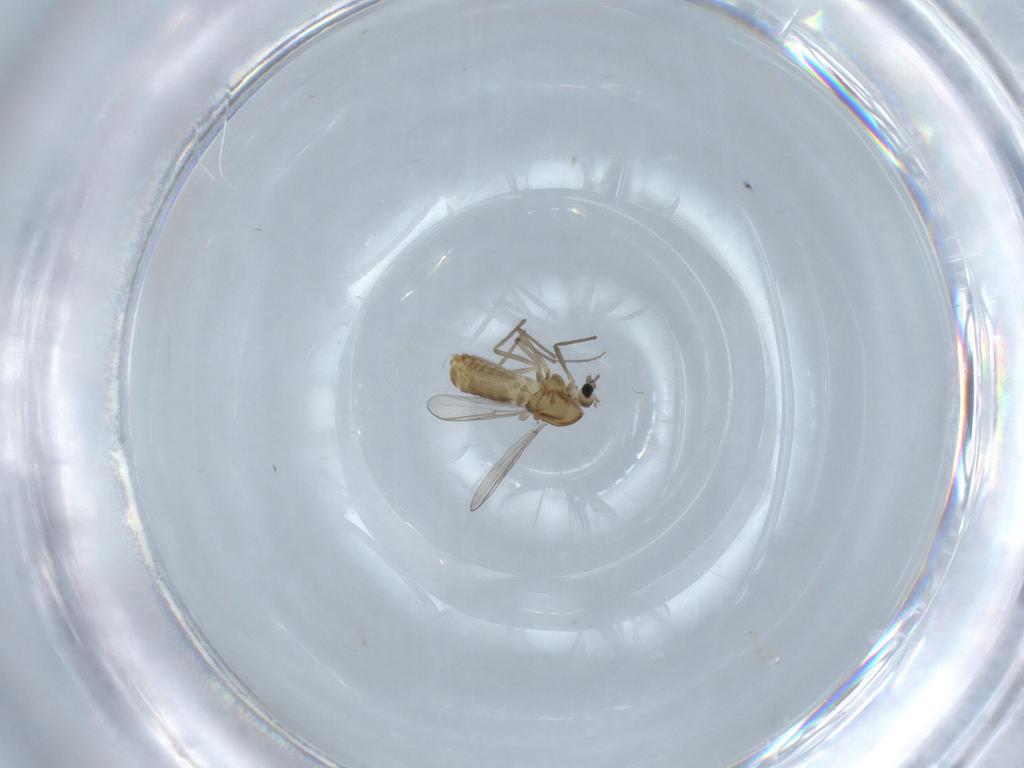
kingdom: Animalia
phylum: Arthropoda
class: Insecta
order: Diptera
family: Chironomidae
